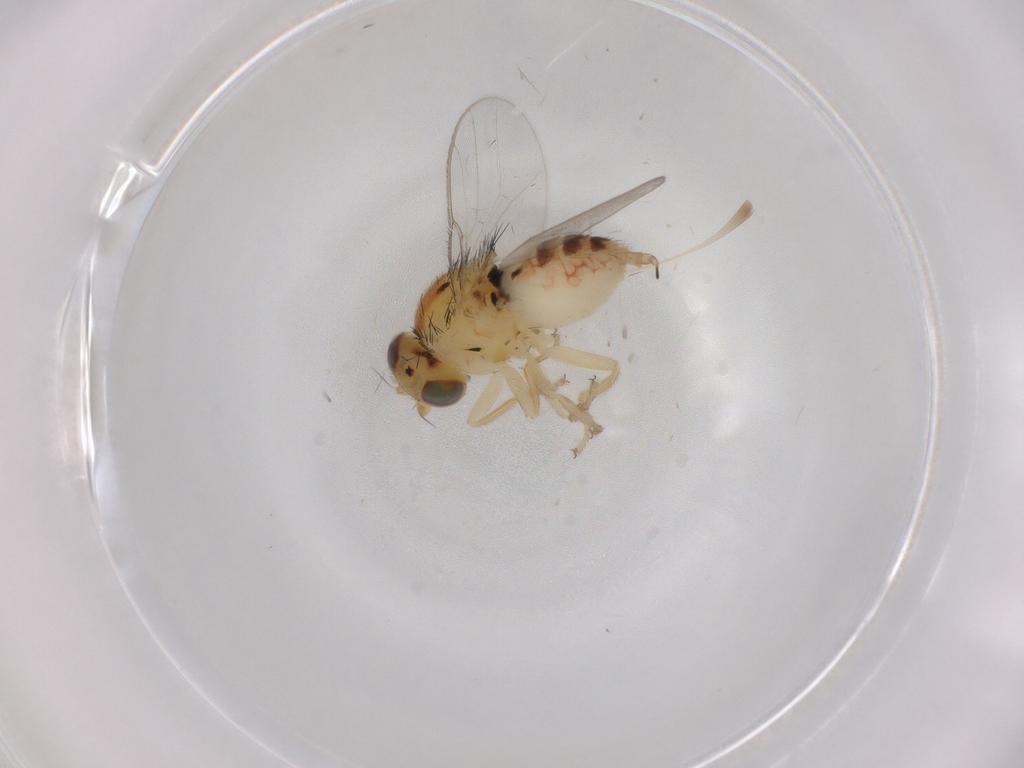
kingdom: Animalia
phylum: Arthropoda
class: Insecta
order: Diptera
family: Chloropidae
